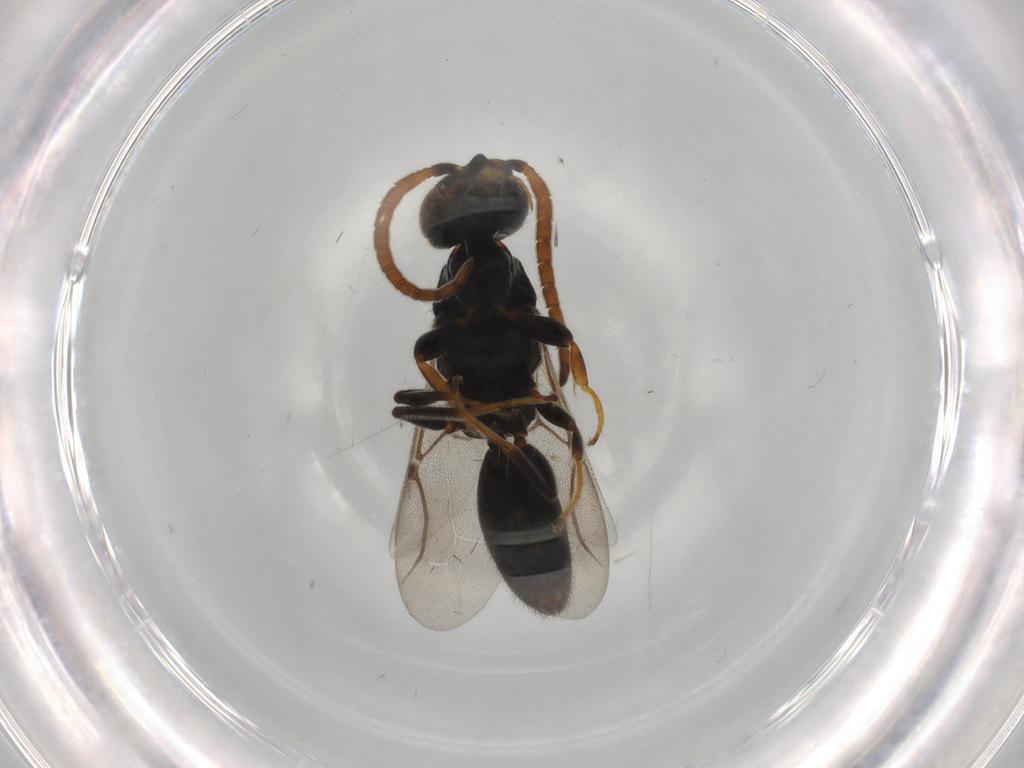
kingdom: Animalia
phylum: Arthropoda
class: Insecta
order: Hymenoptera
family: Bethylidae
